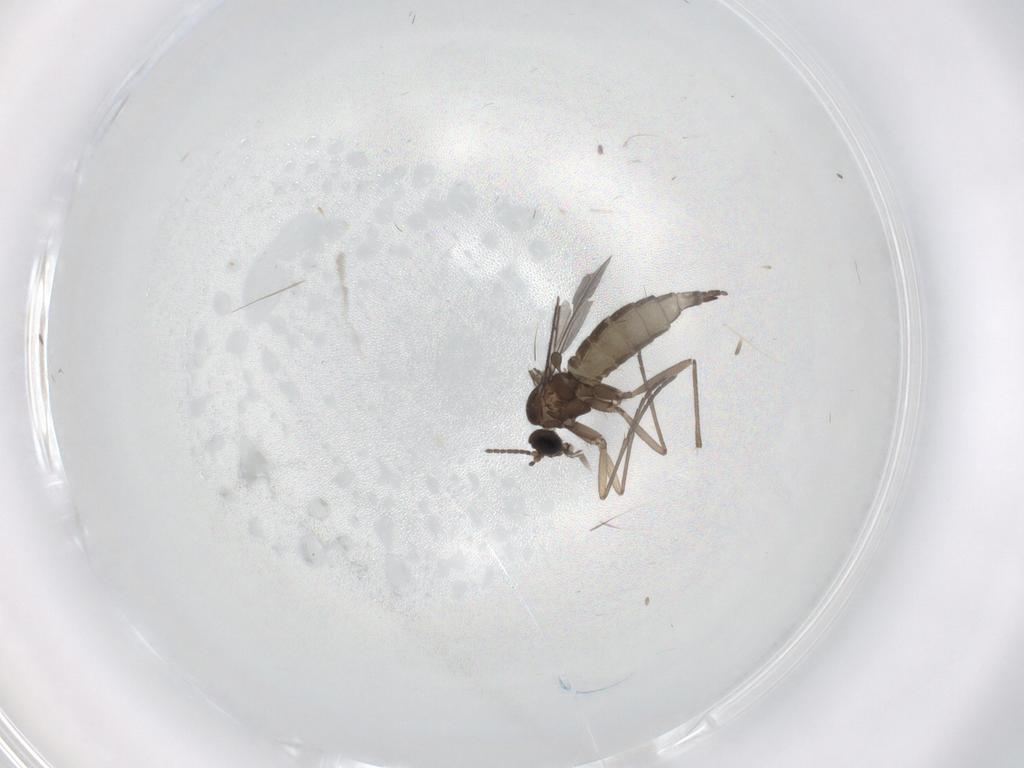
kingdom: Animalia
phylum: Arthropoda
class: Insecta
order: Diptera
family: Sciaridae
